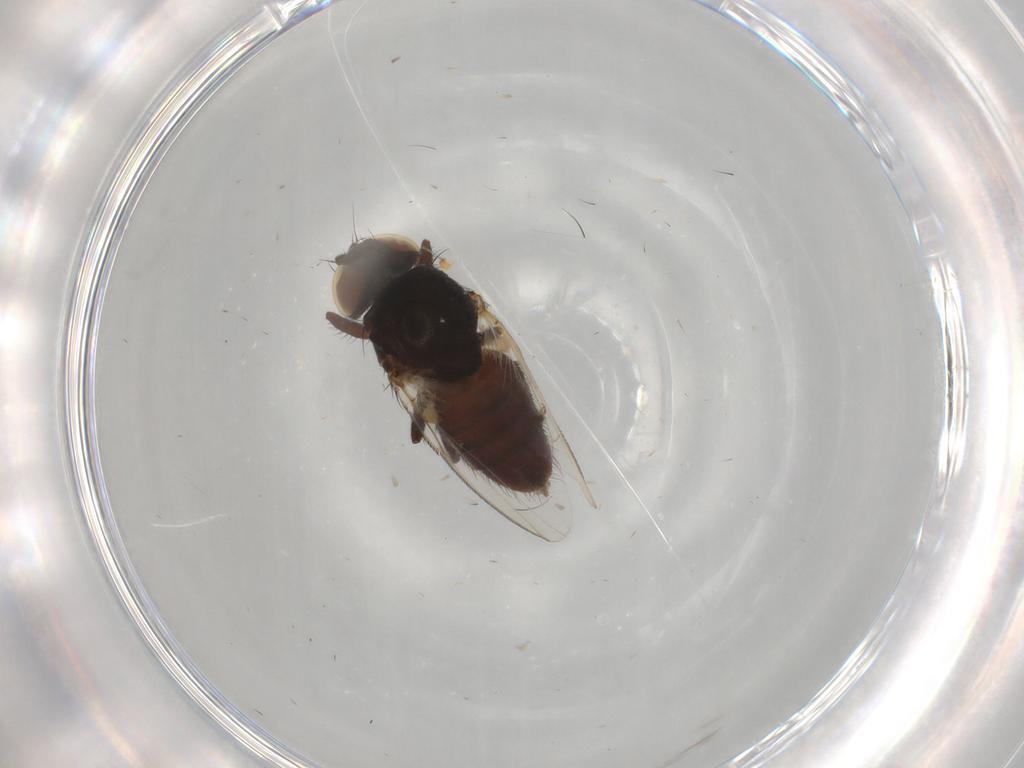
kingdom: Animalia
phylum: Arthropoda
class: Insecta
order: Diptera
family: Milichiidae
